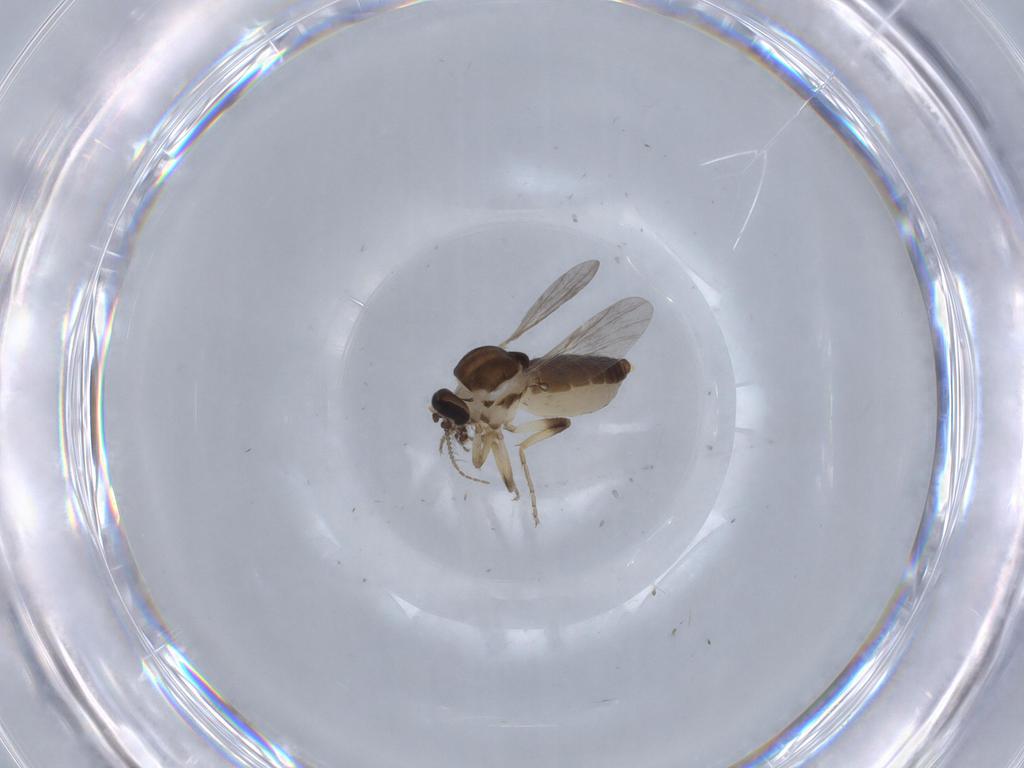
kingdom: Animalia
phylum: Arthropoda
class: Insecta
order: Diptera
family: Ceratopogonidae
